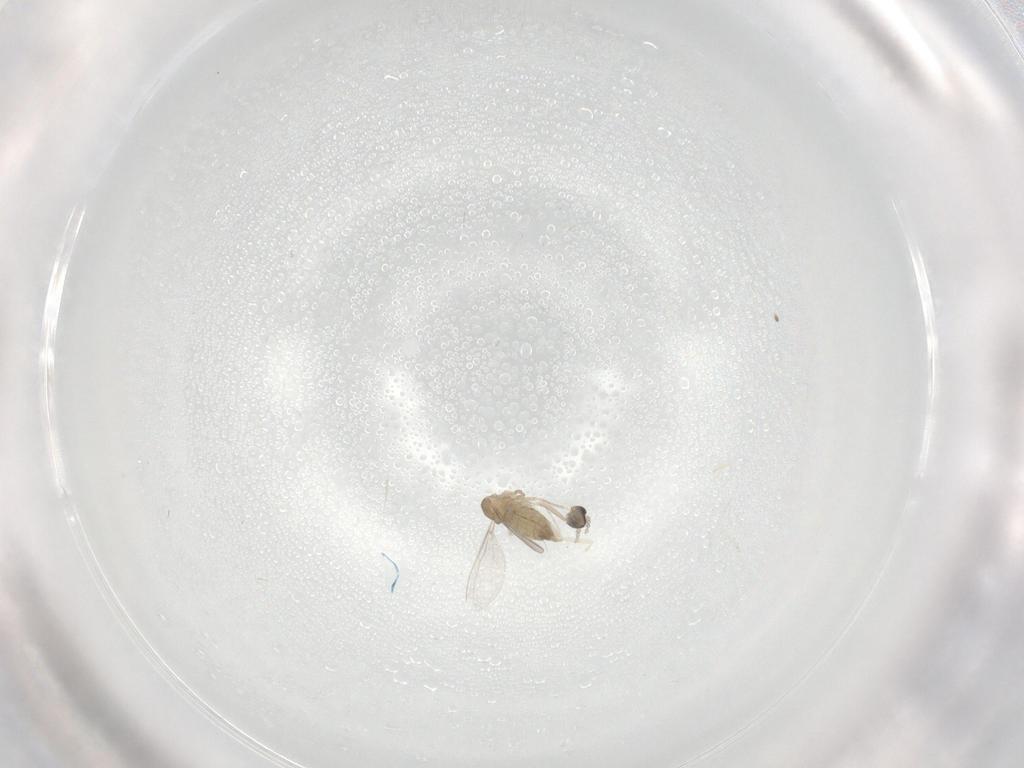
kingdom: Animalia
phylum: Arthropoda
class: Insecta
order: Diptera
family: Cecidomyiidae
